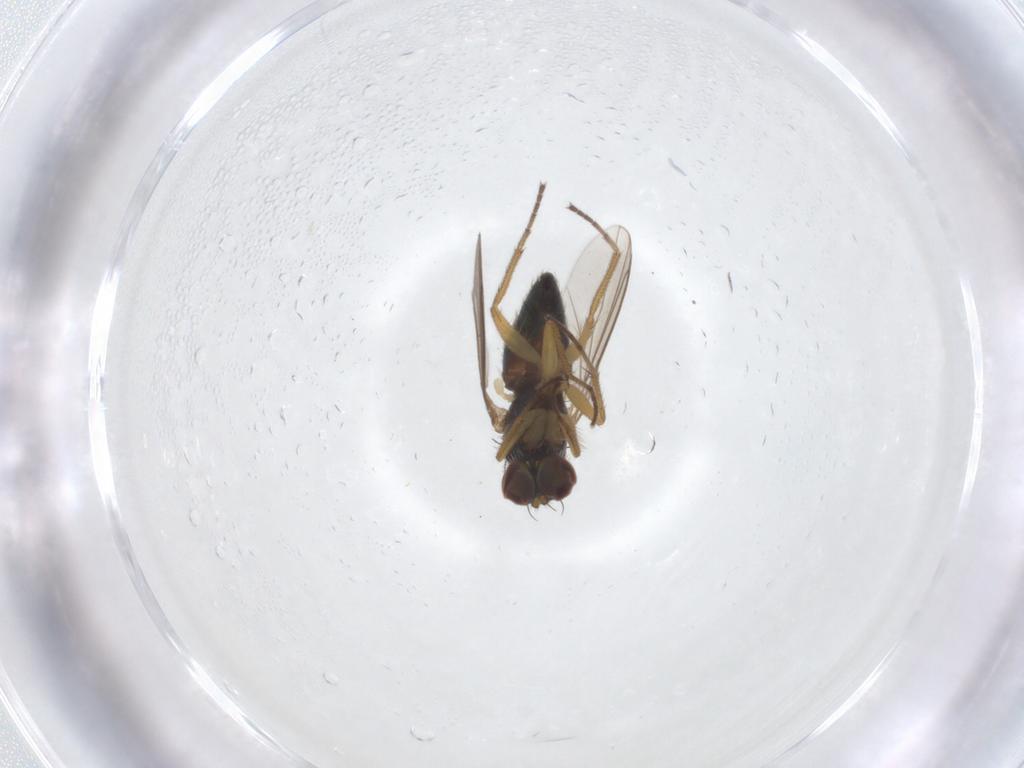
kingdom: Animalia
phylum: Arthropoda
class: Insecta
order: Diptera
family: Dolichopodidae
